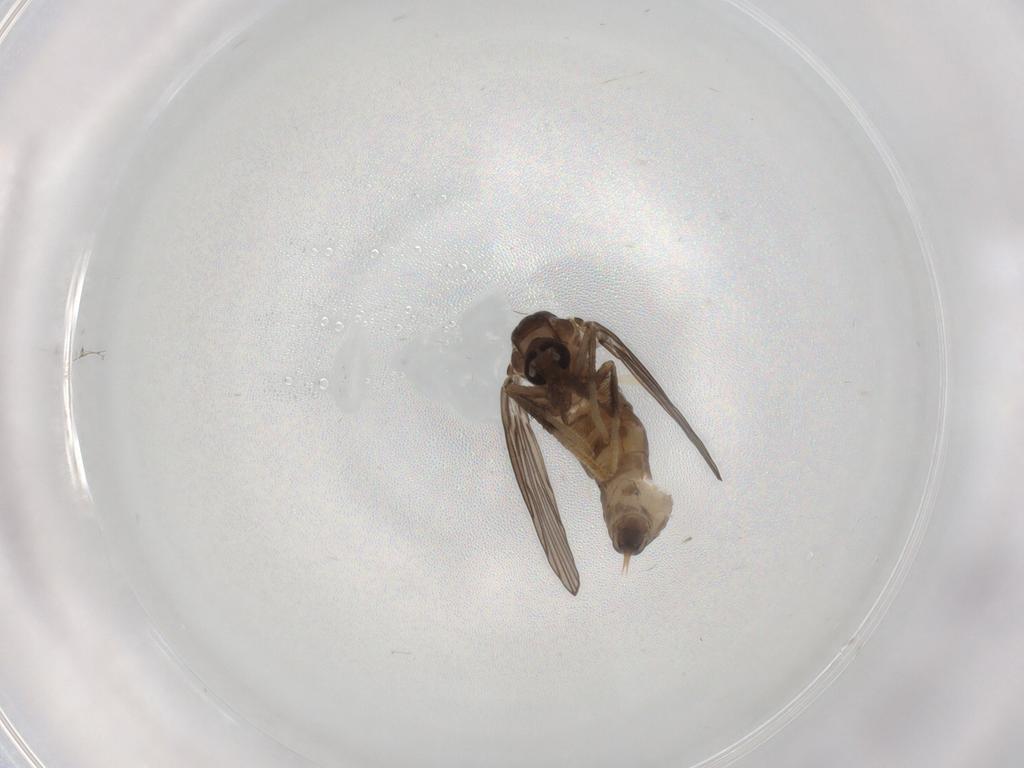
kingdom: Animalia
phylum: Arthropoda
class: Insecta
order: Diptera
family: Psychodidae
